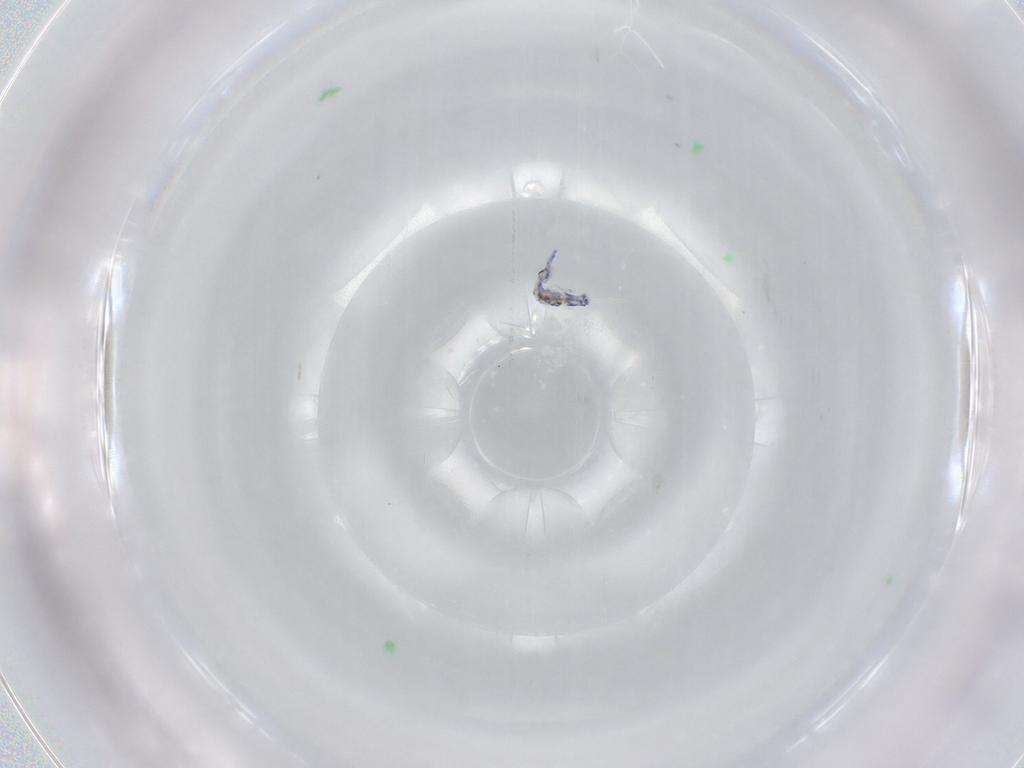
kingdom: Animalia
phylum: Arthropoda
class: Collembola
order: Entomobryomorpha
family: Entomobryidae
